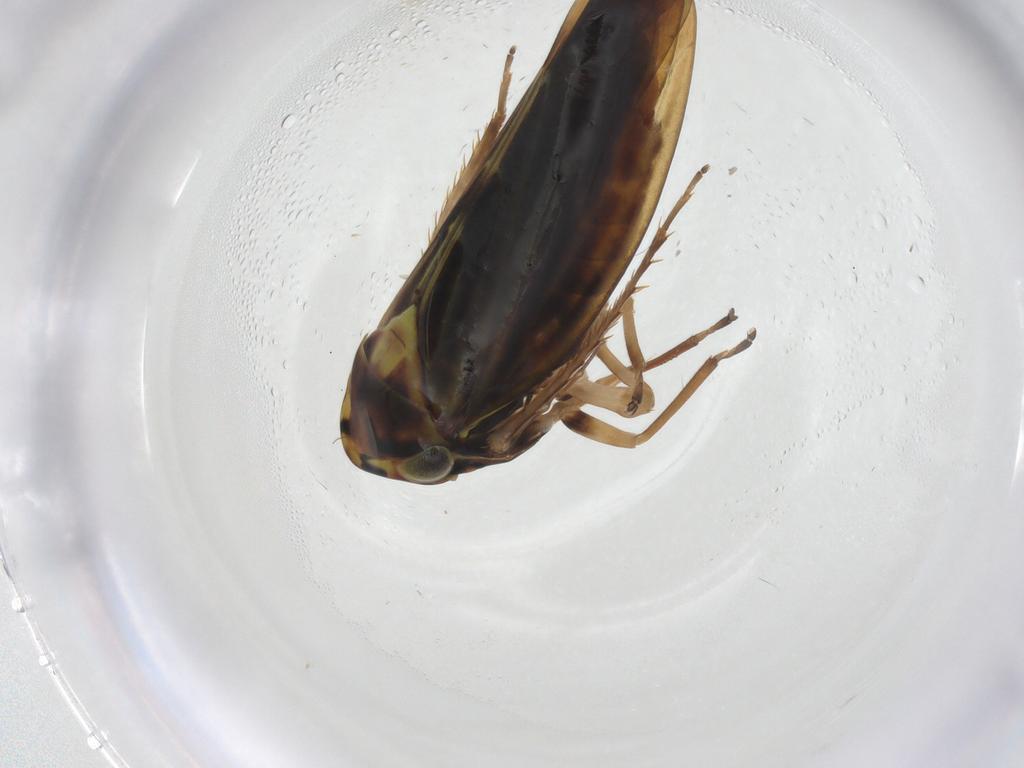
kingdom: Animalia
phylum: Arthropoda
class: Insecta
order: Hemiptera
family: Cicadellidae
